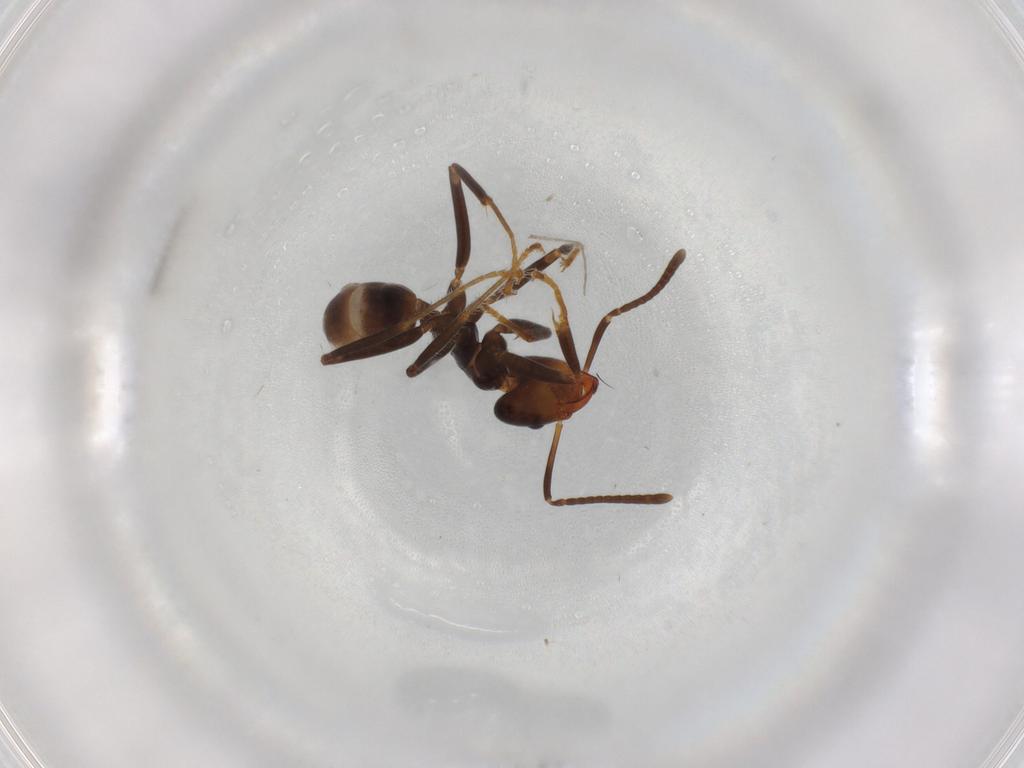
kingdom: Animalia
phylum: Arthropoda
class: Insecta
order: Hymenoptera
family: Formicidae
